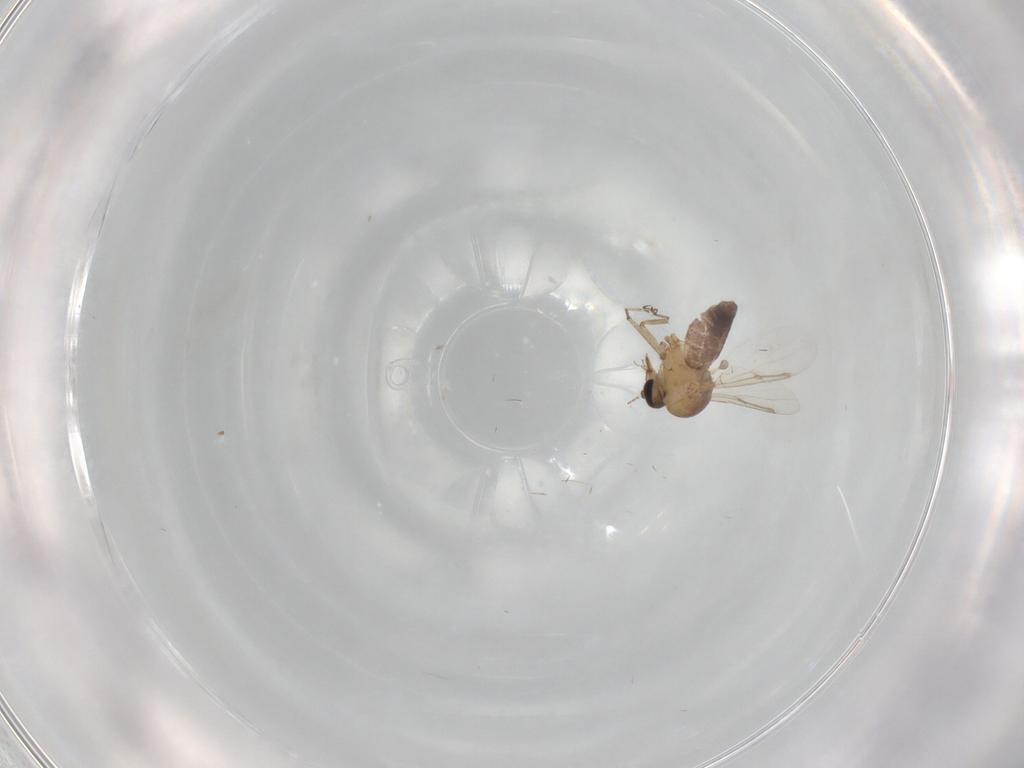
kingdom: Animalia
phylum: Arthropoda
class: Insecta
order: Diptera
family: Ceratopogonidae
